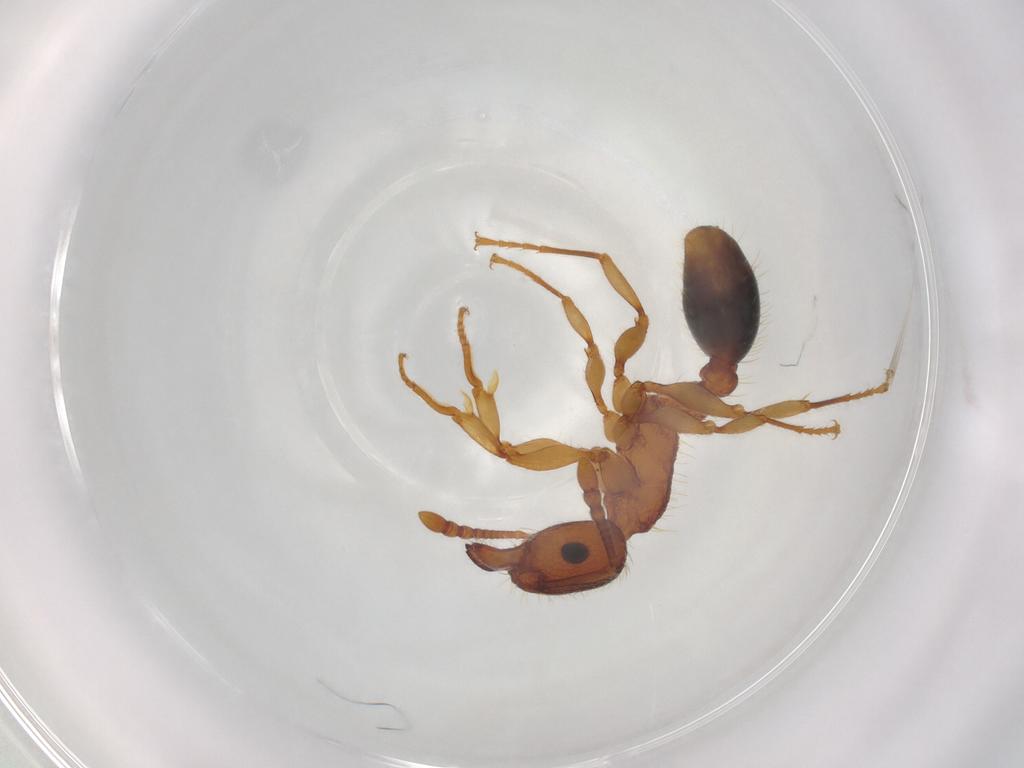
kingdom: Animalia
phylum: Arthropoda
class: Insecta
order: Hymenoptera
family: Formicidae
